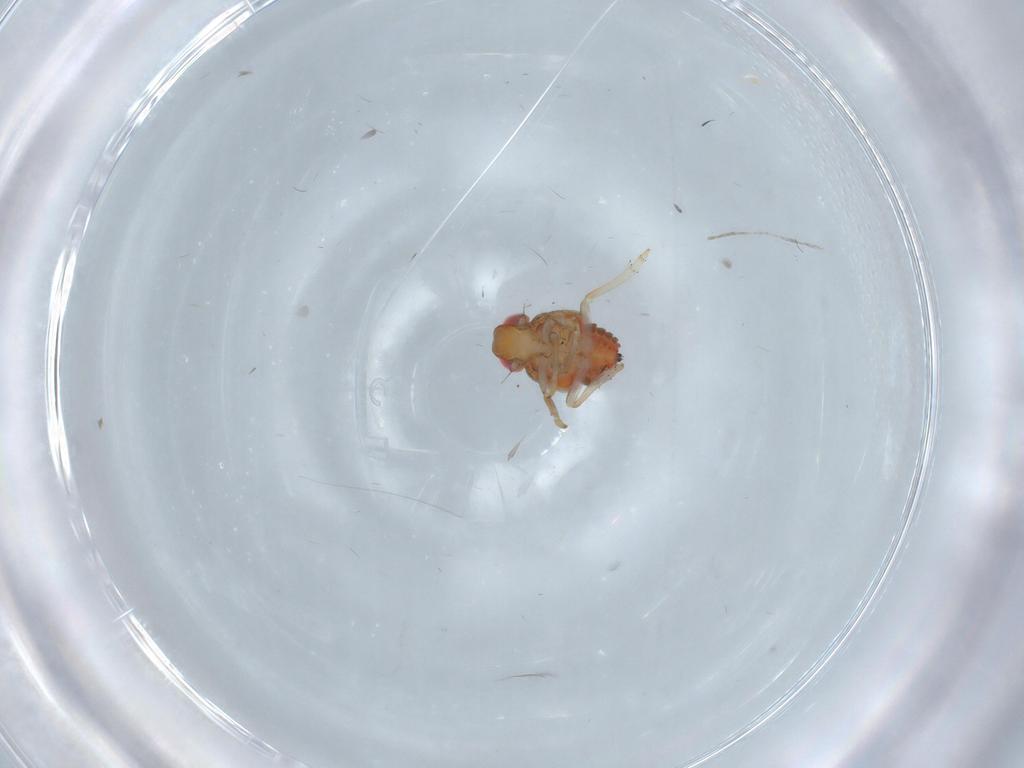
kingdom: Animalia
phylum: Arthropoda
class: Insecta
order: Hemiptera
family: Issidae
